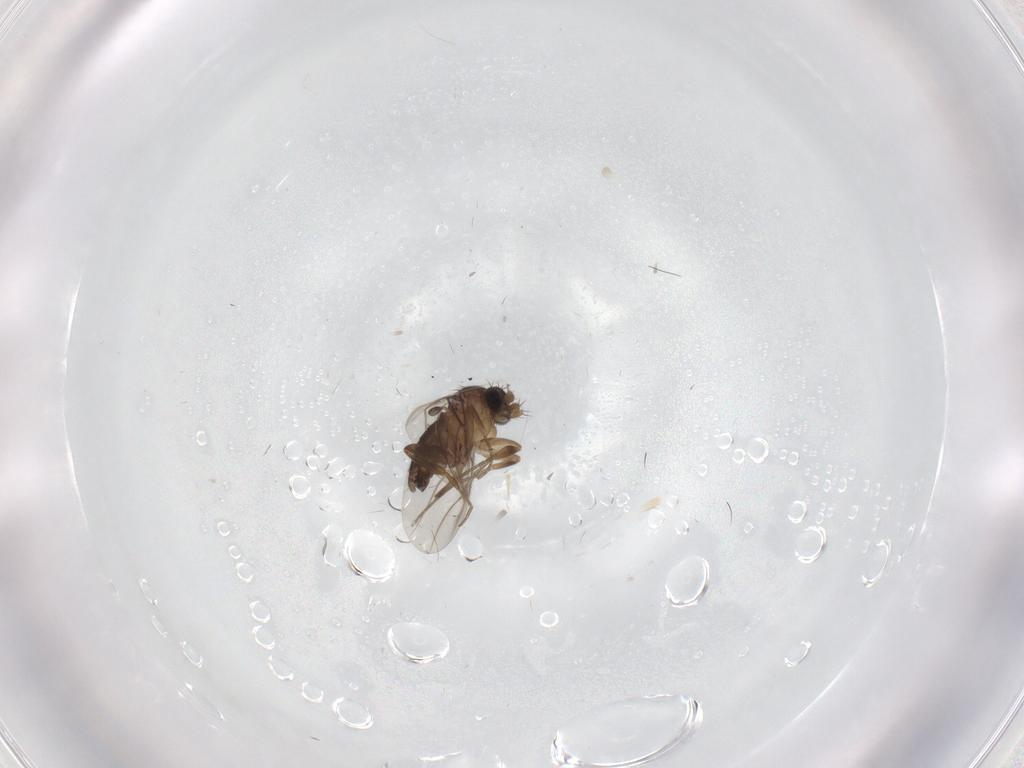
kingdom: Animalia
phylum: Arthropoda
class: Insecta
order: Diptera
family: Phoridae
